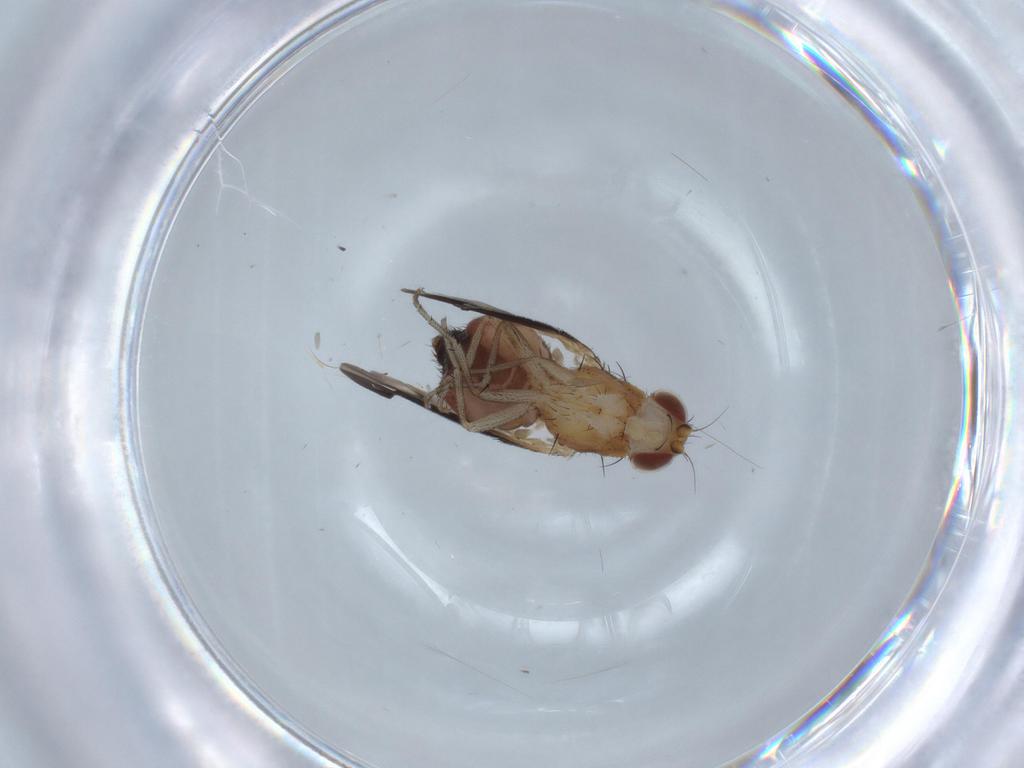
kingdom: Animalia
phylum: Arthropoda
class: Insecta
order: Diptera
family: Heleomyzidae
